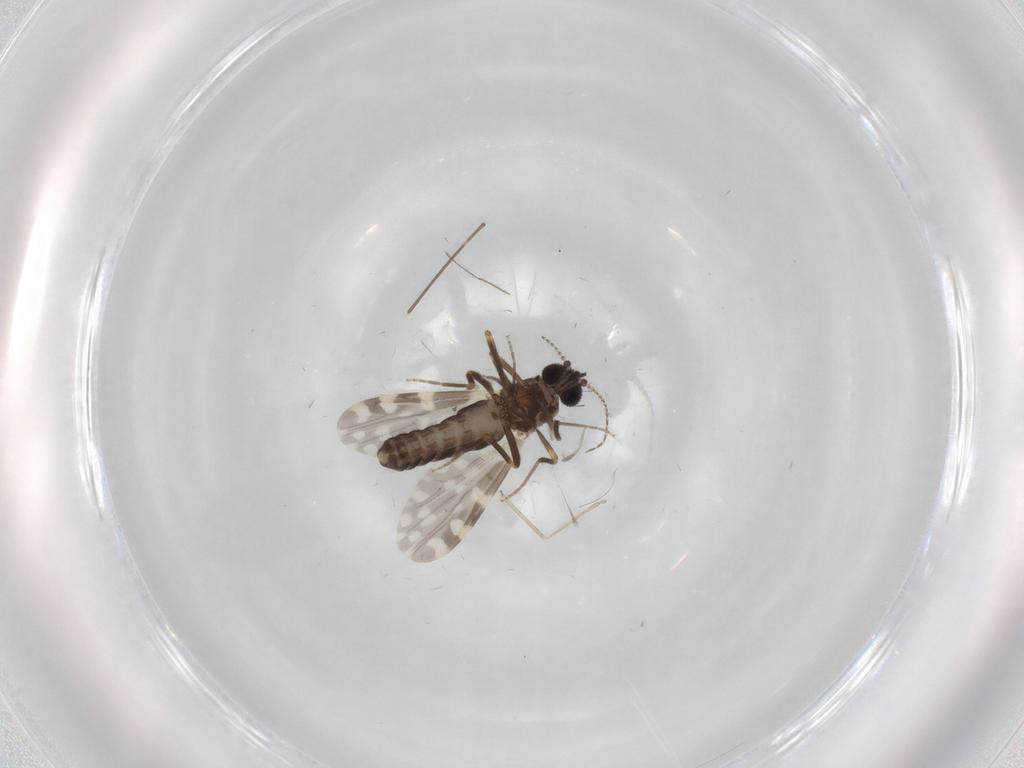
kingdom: Animalia
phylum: Arthropoda
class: Insecta
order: Diptera
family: Ceratopogonidae
